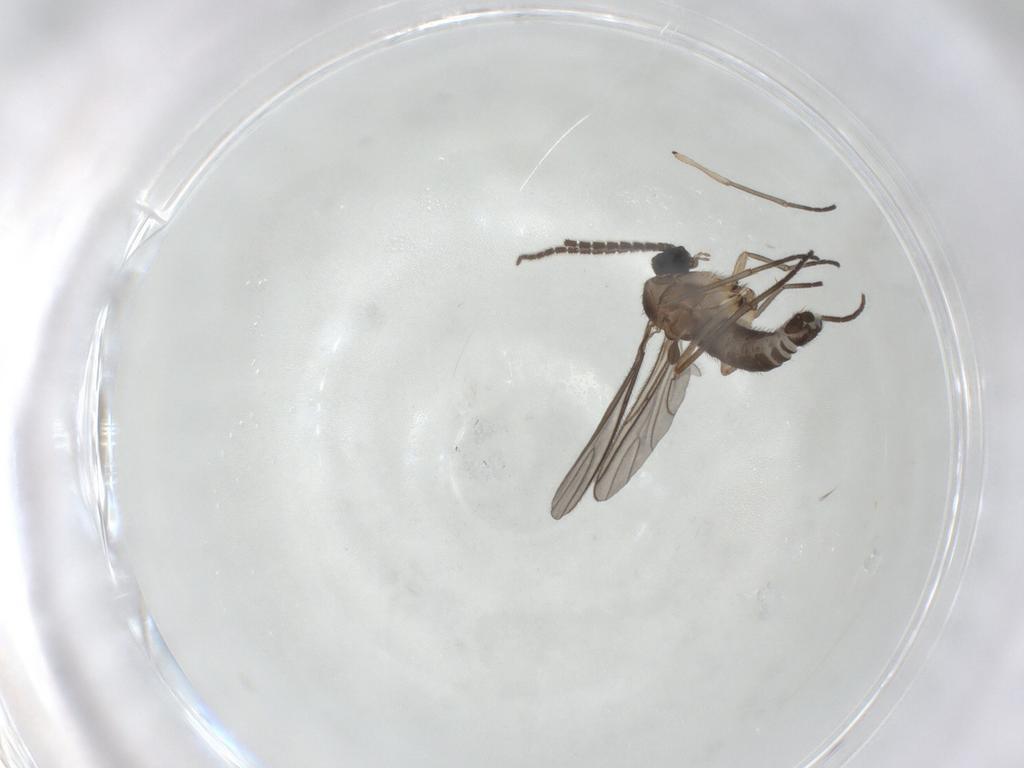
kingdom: Animalia
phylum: Arthropoda
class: Insecta
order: Diptera
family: Sciaridae
